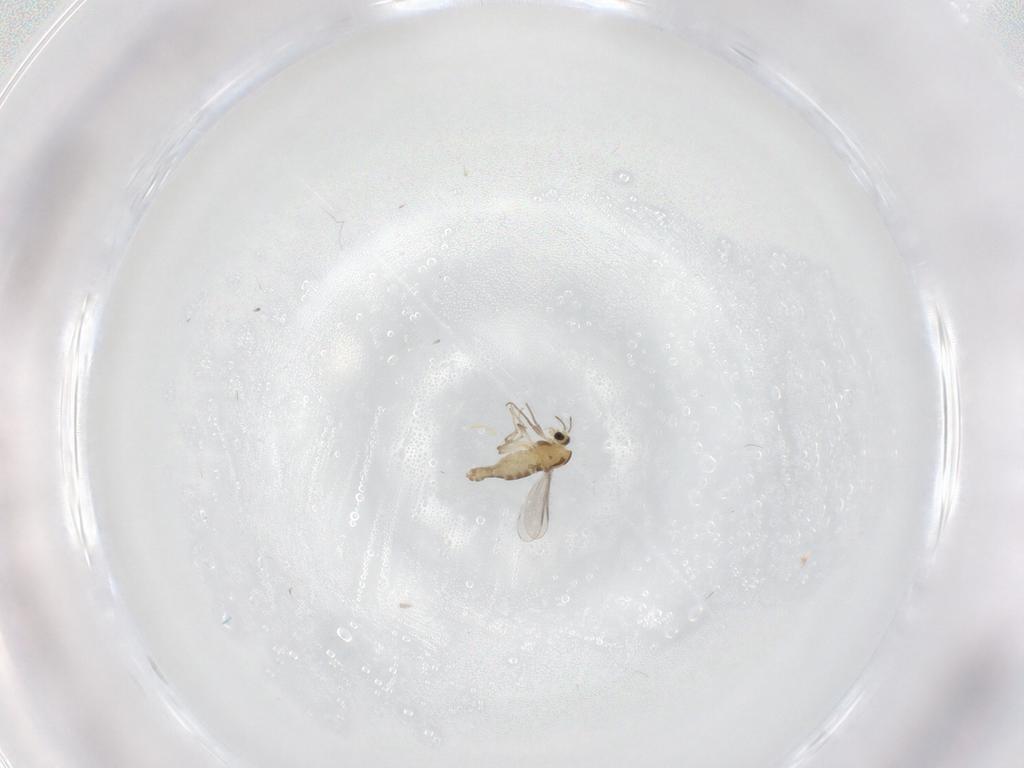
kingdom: Animalia
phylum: Arthropoda
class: Insecta
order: Diptera
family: Chironomidae
